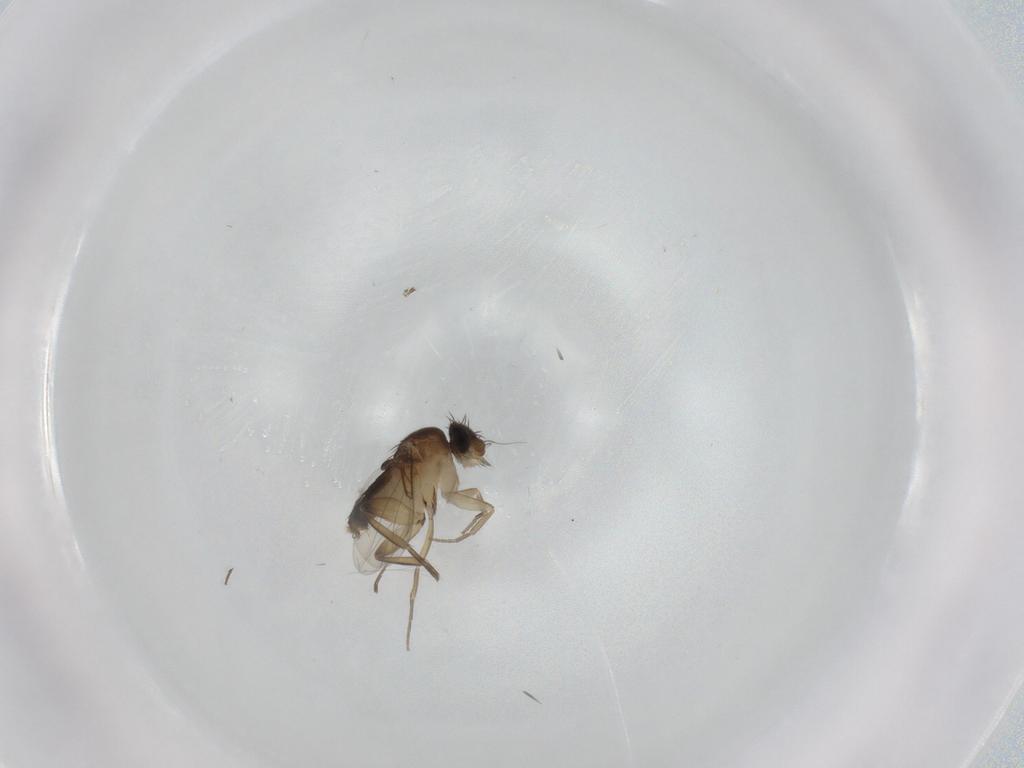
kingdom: Animalia
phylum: Arthropoda
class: Insecta
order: Diptera
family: Phoridae
